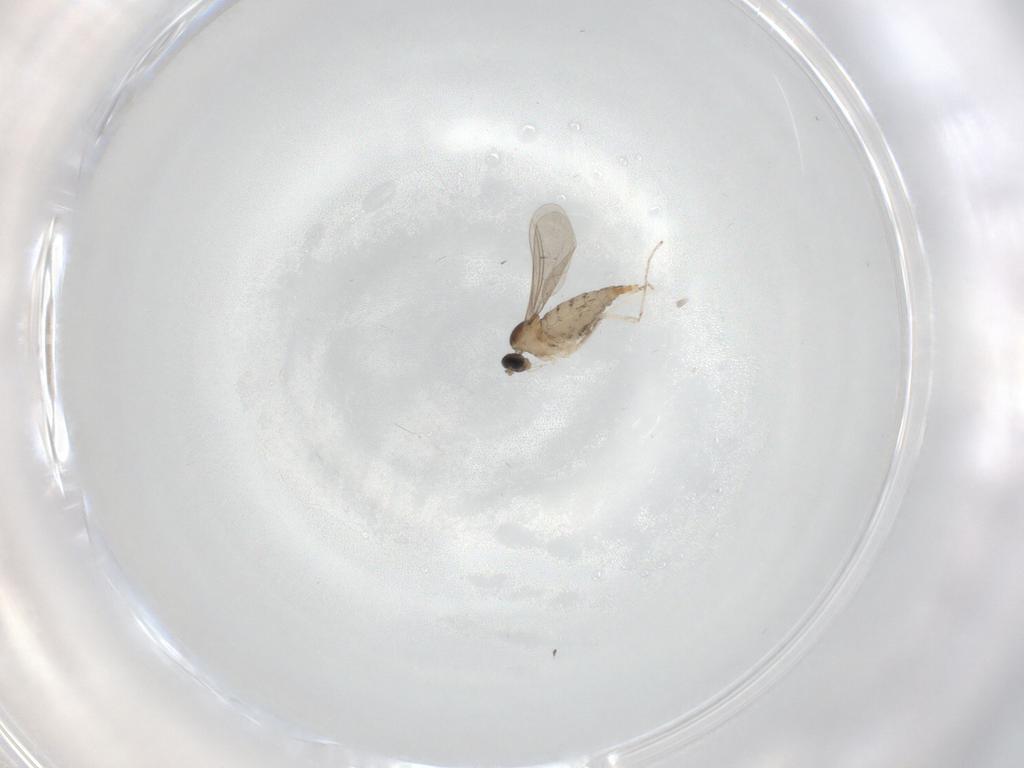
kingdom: Animalia
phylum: Arthropoda
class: Insecta
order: Diptera
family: Cecidomyiidae
